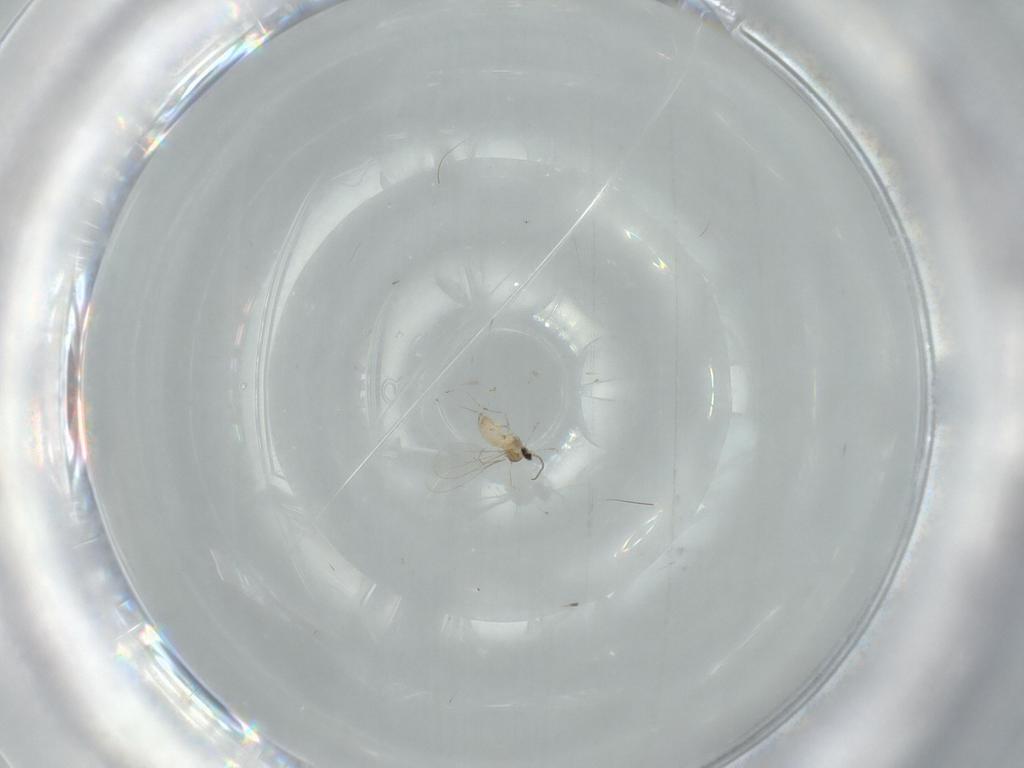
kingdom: Animalia
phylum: Arthropoda
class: Insecta
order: Diptera
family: Cecidomyiidae
